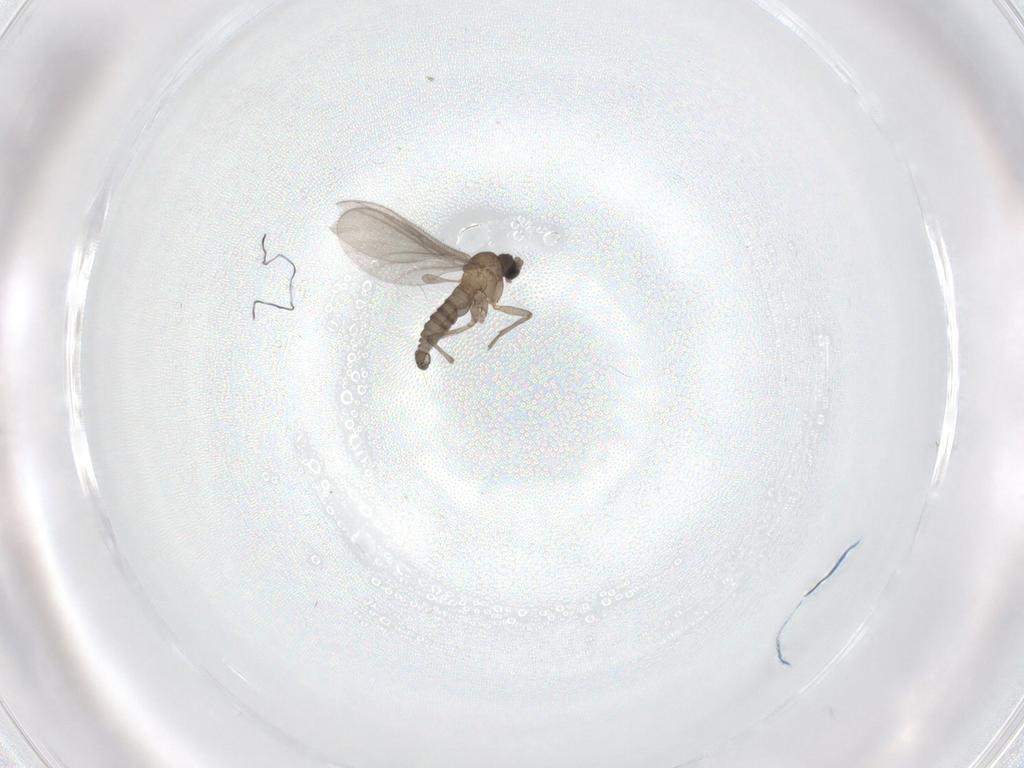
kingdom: Animalia
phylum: Arthropoda
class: Insecta
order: Diptera
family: Sciaridae
